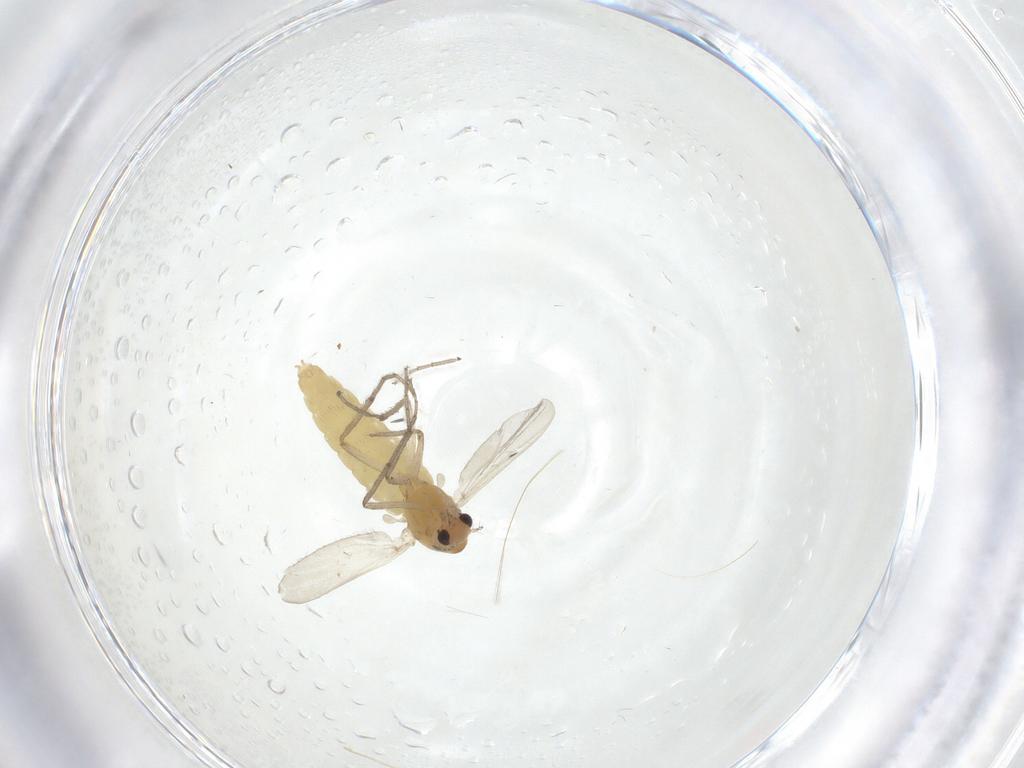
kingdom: Animalia
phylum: Arthropoda
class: Insecta
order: Diptera
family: Chironomidae
